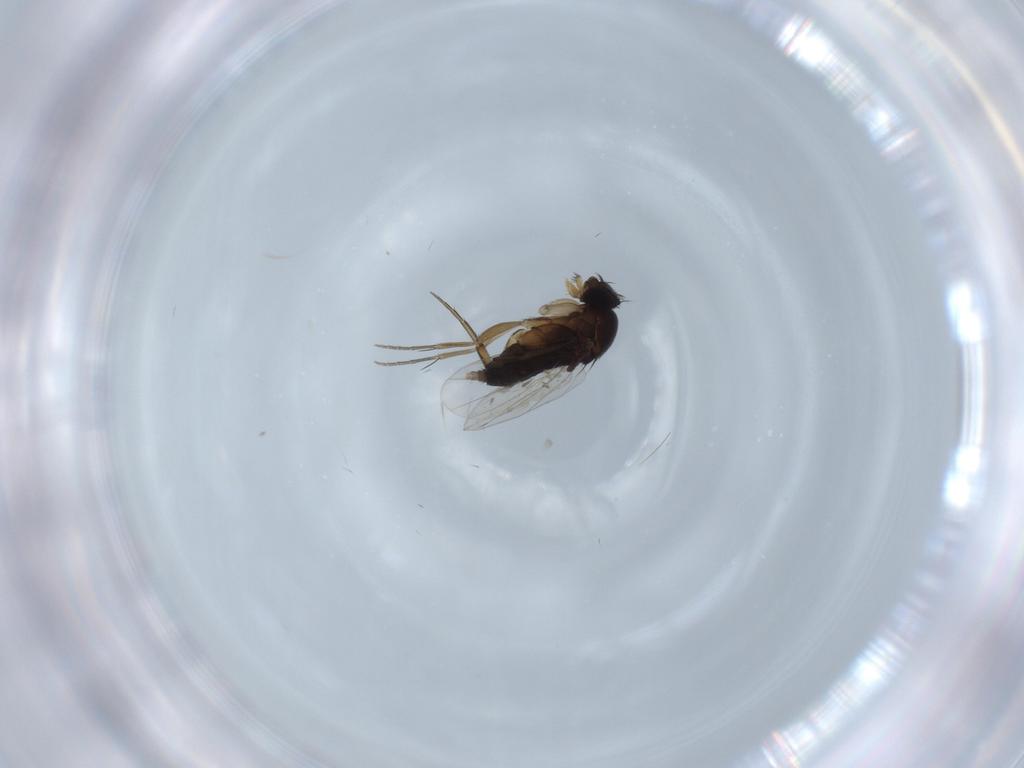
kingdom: Animalia
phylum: Arthropoda
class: Insecta
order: Diptera
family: Phoridae
